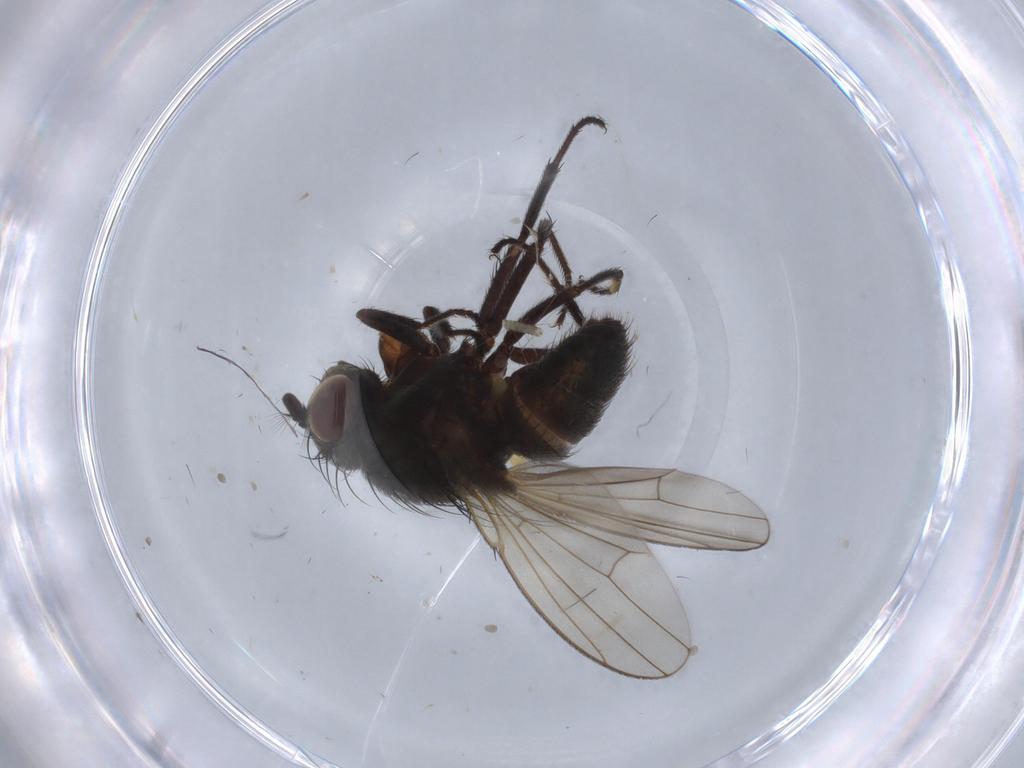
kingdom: Animalia
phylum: Arthropoda
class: Insecta
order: Diptera
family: Ephydridae
